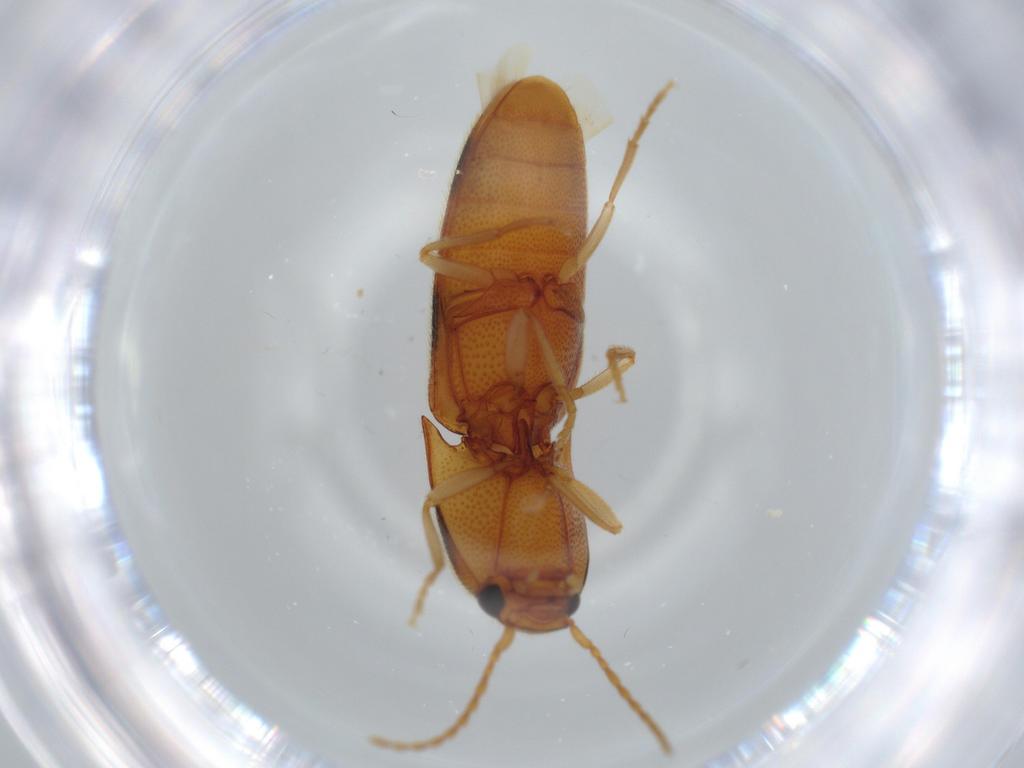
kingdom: Animalia
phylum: Arthropoda
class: Insecta
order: Coleoptera
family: Elateridae
